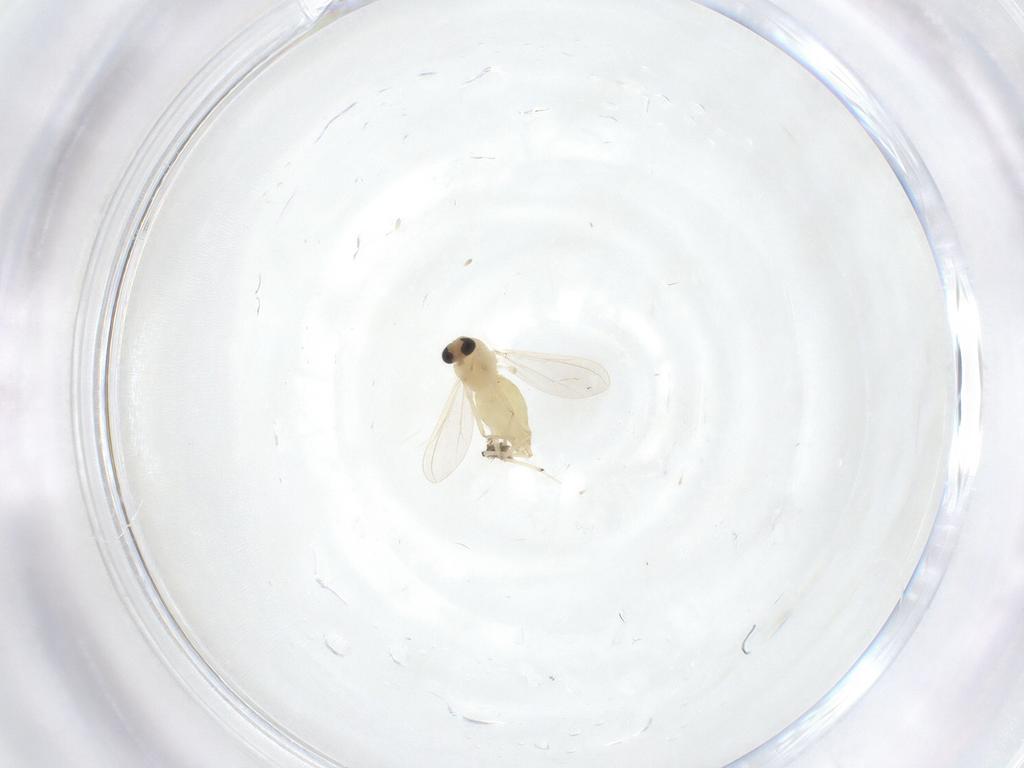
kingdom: Animalia
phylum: Arthropoda
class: Insecta
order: Diptera
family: Chironomidae
